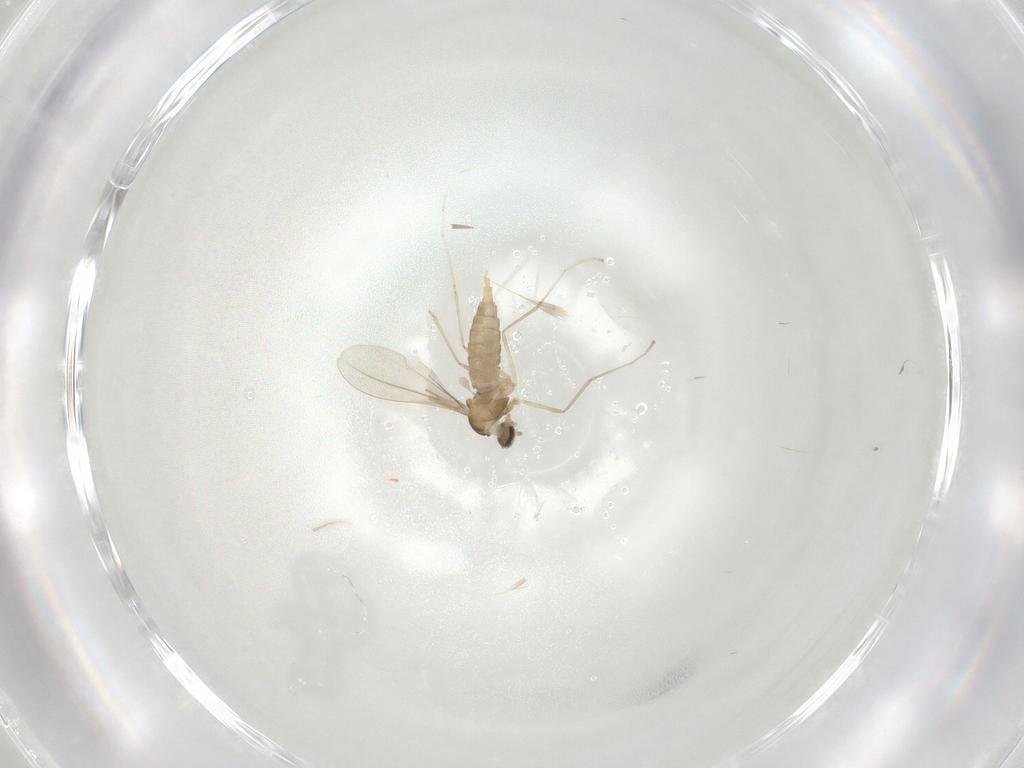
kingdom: Animalia
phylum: Arthropoda
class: Insecta
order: Diptera
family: Cecidomyiidae
